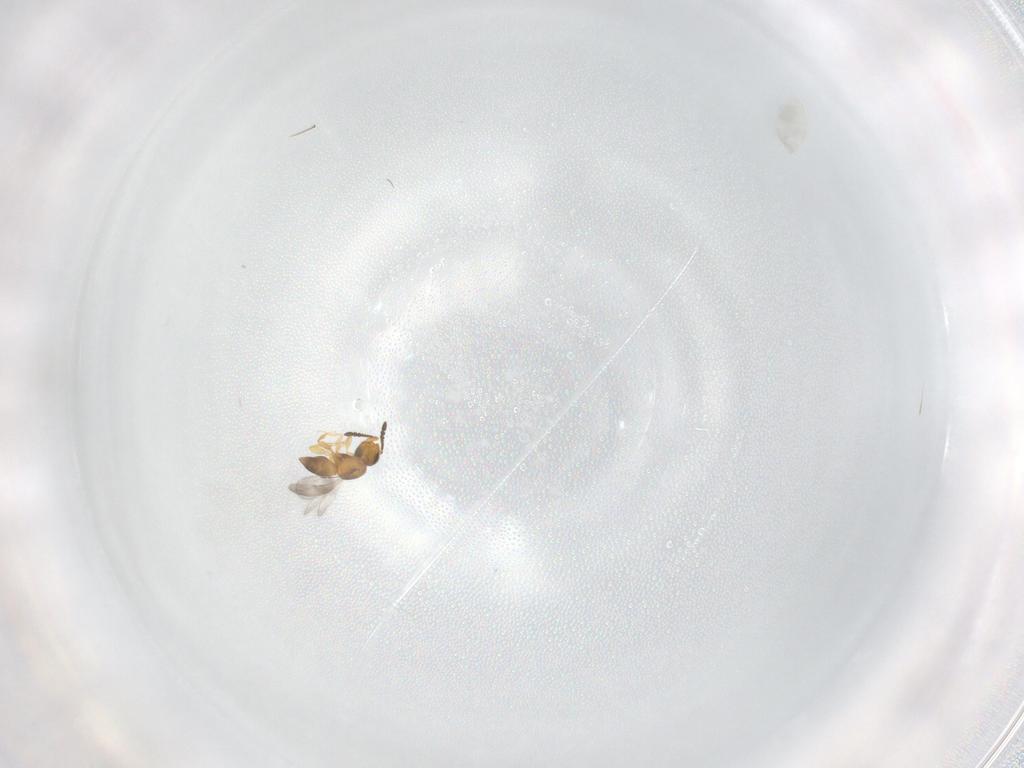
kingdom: Animalia
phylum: Arthropoda
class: Insecta
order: Diptera
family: Cecidomyiidae
